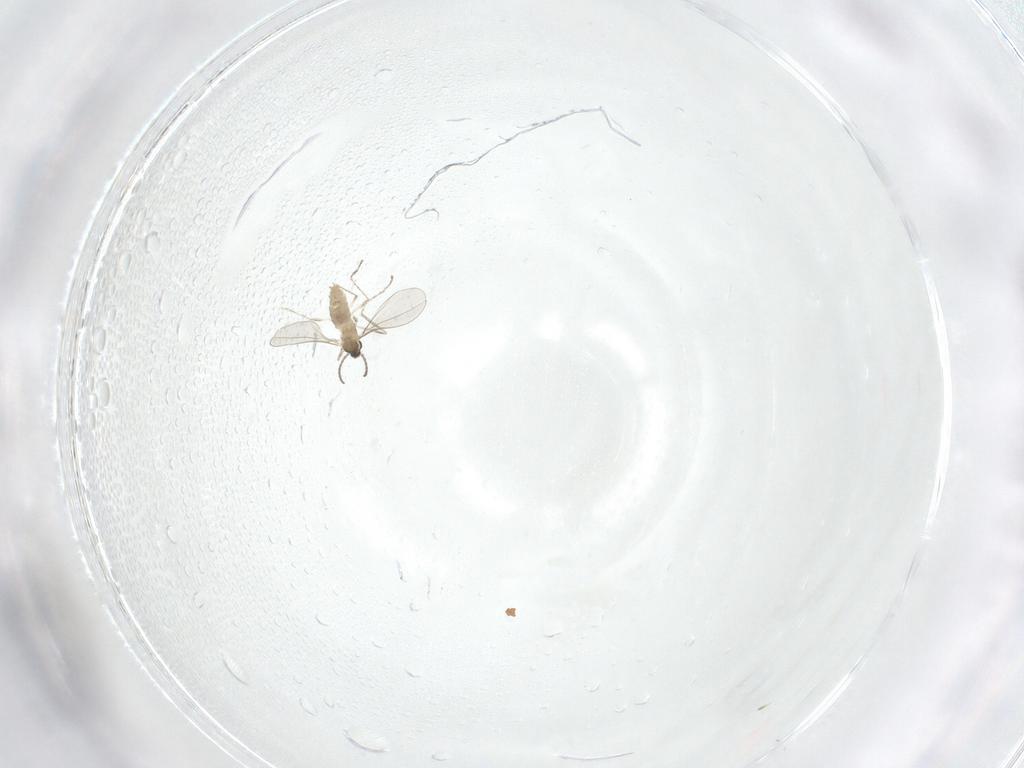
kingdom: Animalia
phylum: Arthropoda
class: Insecta
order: Diptera
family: Cecidomyiidae
